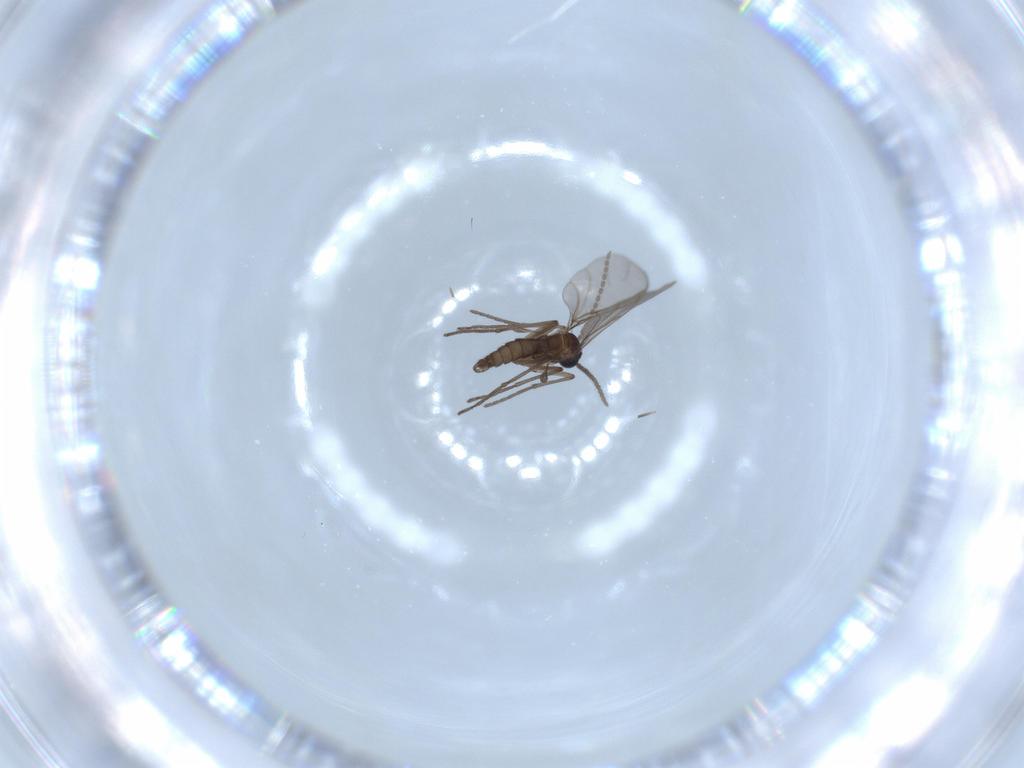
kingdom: Animalia
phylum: Arthropoda
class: Insecta
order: Diptera
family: Sciaridae
